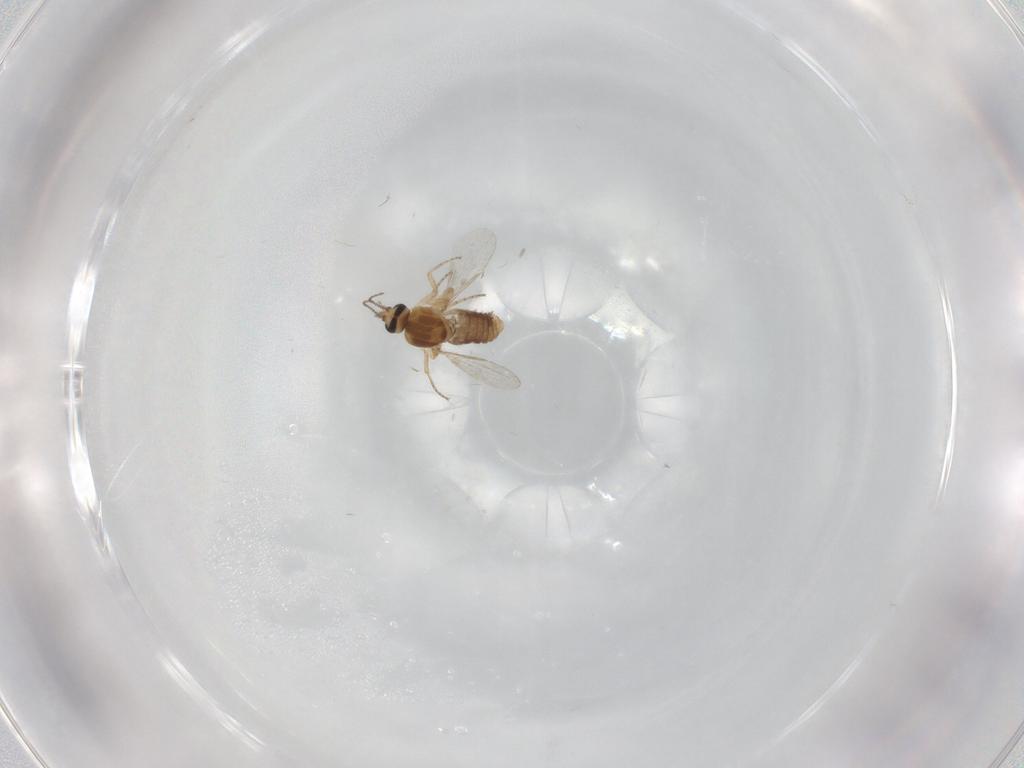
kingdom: Animalia
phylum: Arthropoda
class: Insecta
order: Diptera
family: Ceratopogonidae
